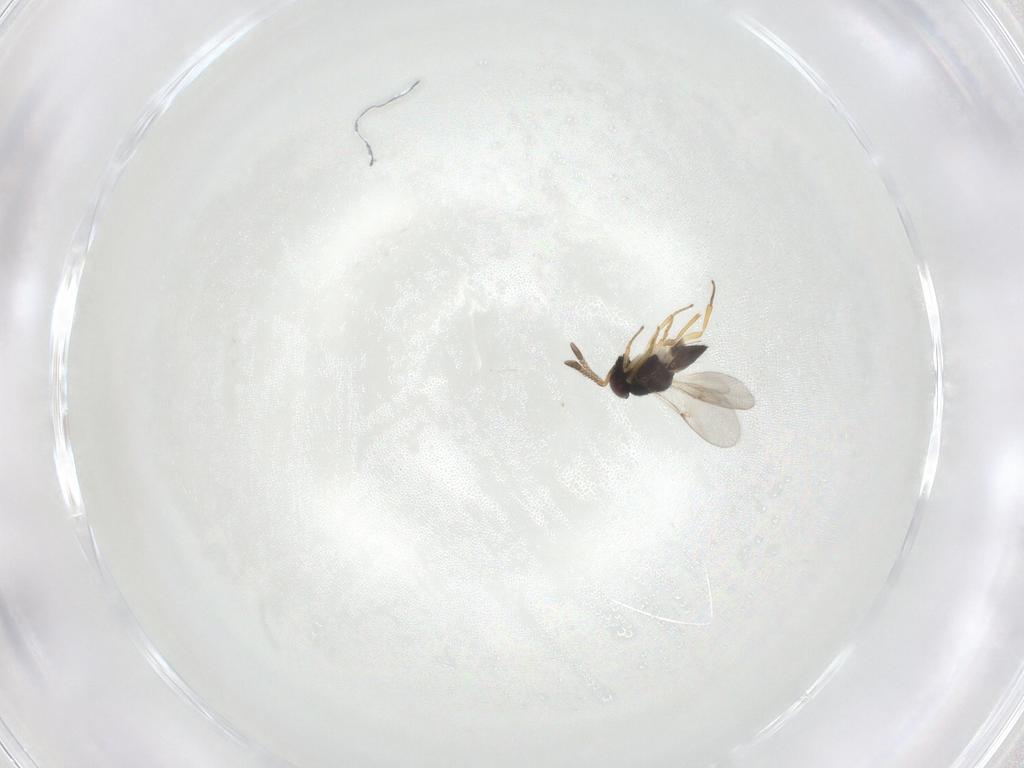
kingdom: Animalia
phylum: Arthropoda
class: Insecta
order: Hymenoptera
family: Encyrtidae
